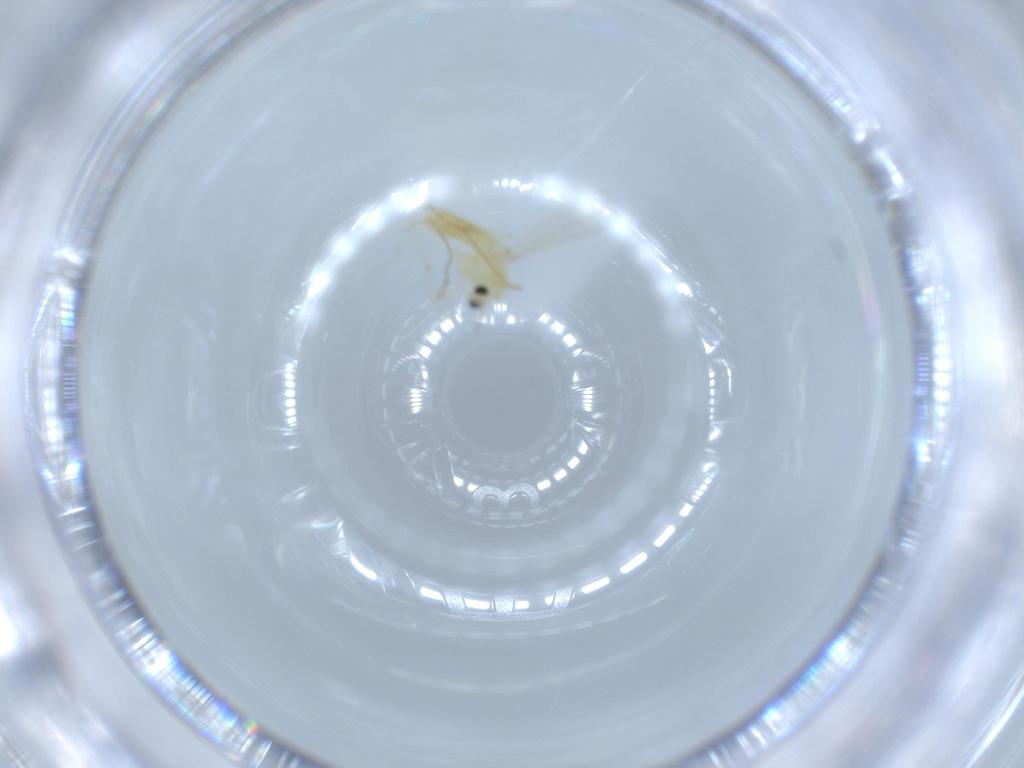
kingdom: Animalia
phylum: Arthropoda
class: Insecta
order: Diptera
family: Chironomidae
